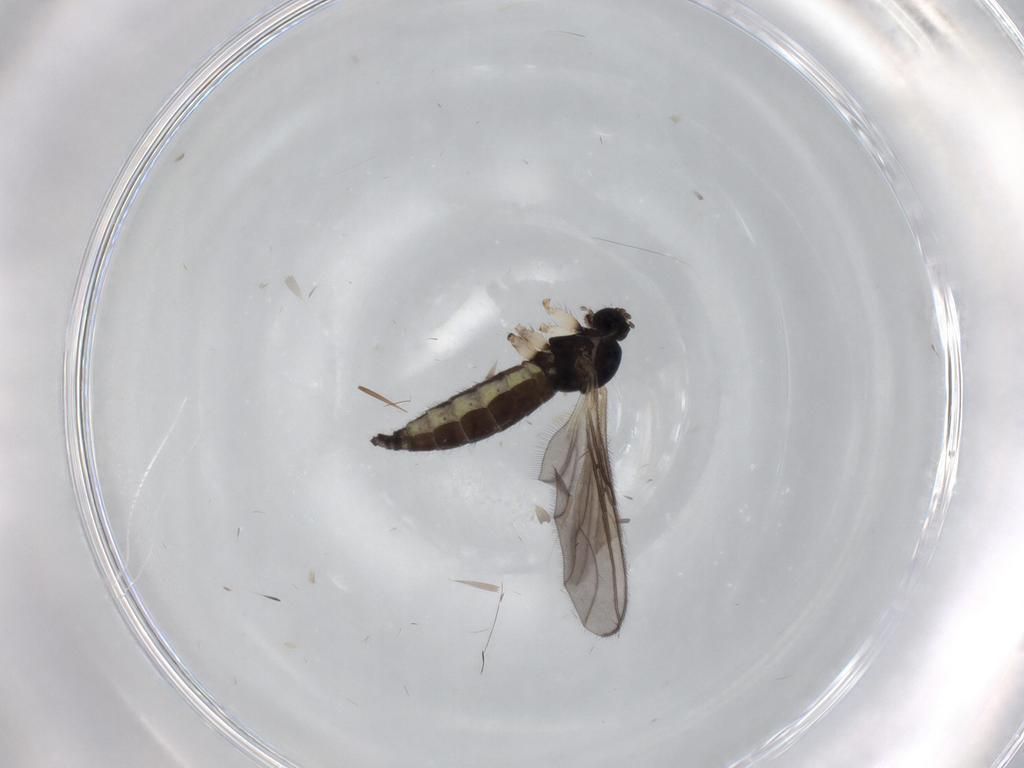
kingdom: Animalia
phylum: Arthropoda
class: Insecta
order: Diptera
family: Sciaridae
